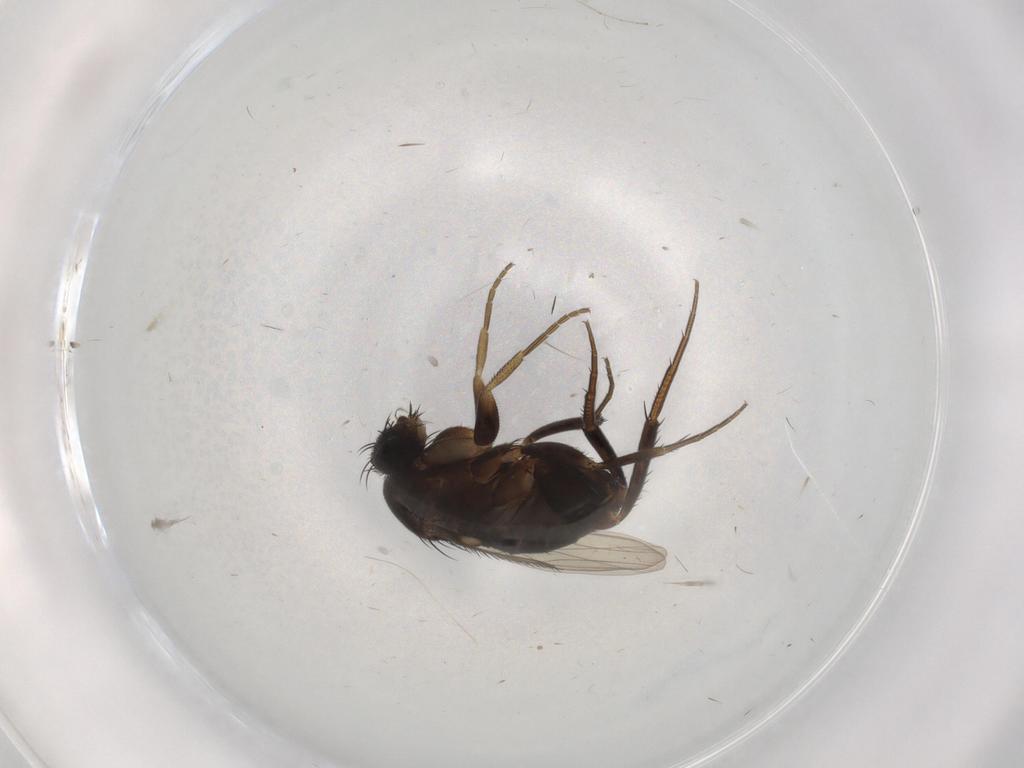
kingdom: Animalia
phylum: Arthropoda
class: Insecta
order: Diptera
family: Phoridae
